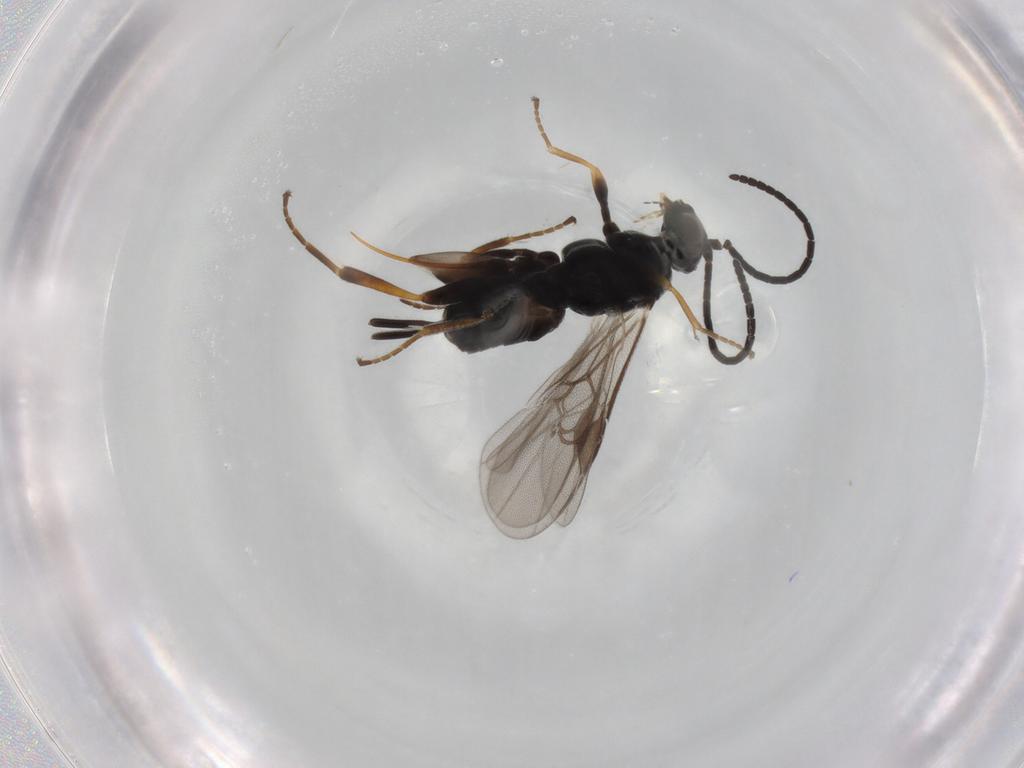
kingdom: Animalia
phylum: Arthropoda
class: Insecta
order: Hymenoptera
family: Braconidae
